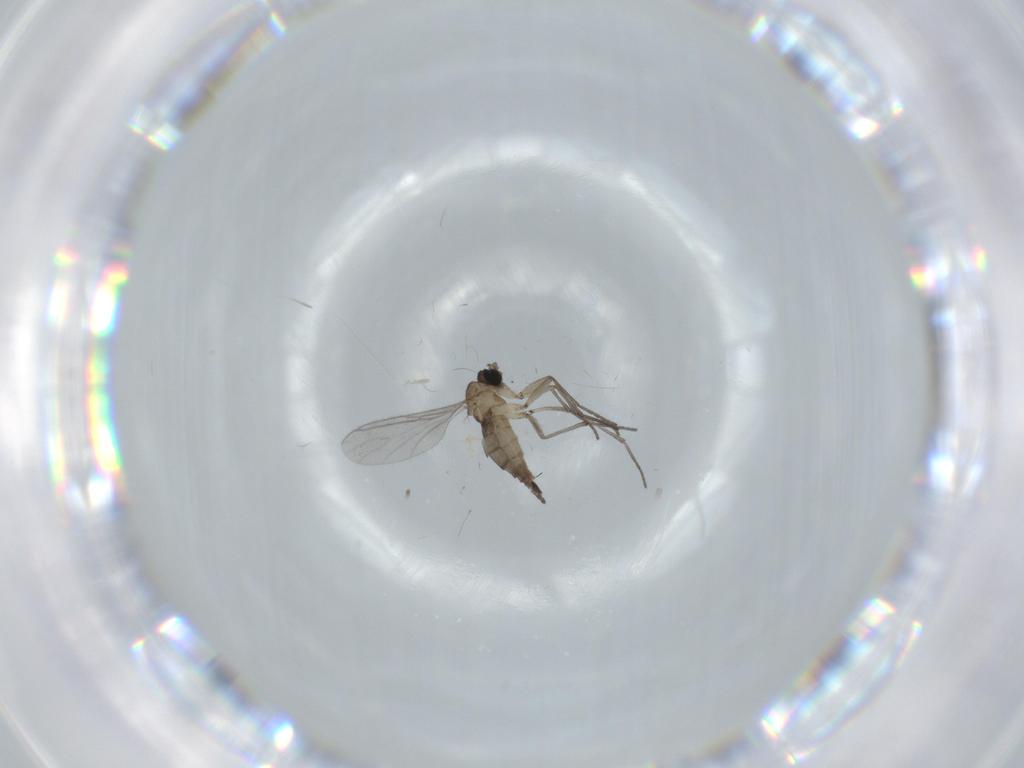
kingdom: Animalia
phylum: Arthropoda
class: Insecta
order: Diptera
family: Sciaridae
